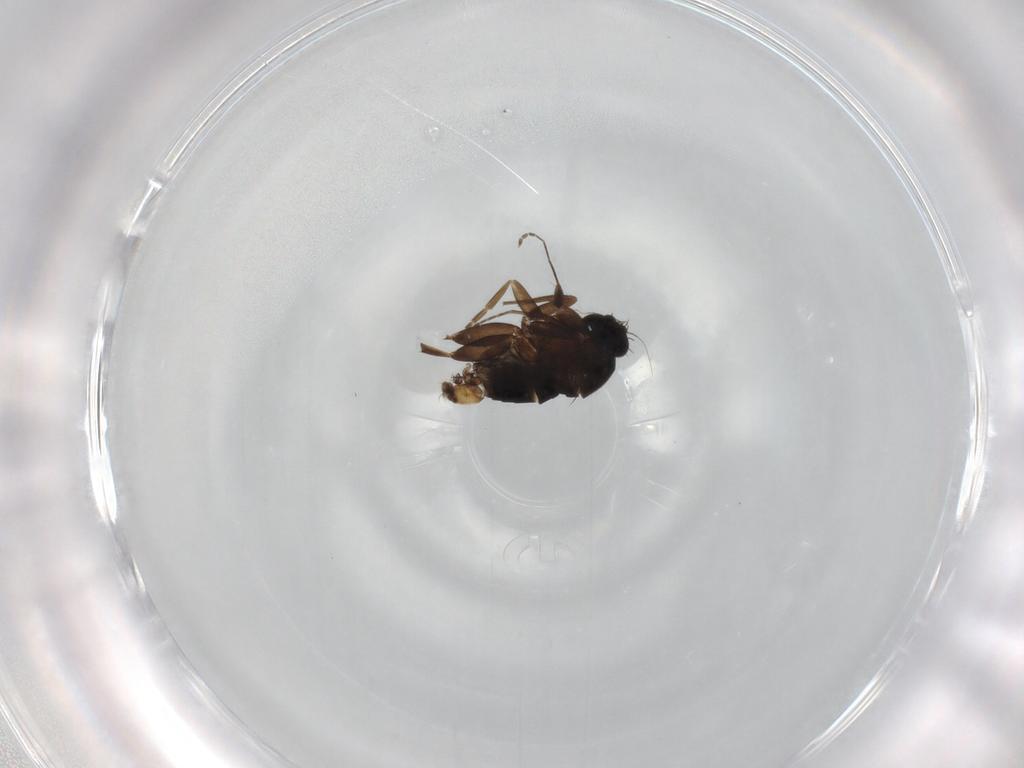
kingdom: Animalia
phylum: Arthropoda
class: Insecta
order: Diptera
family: Phoridae
